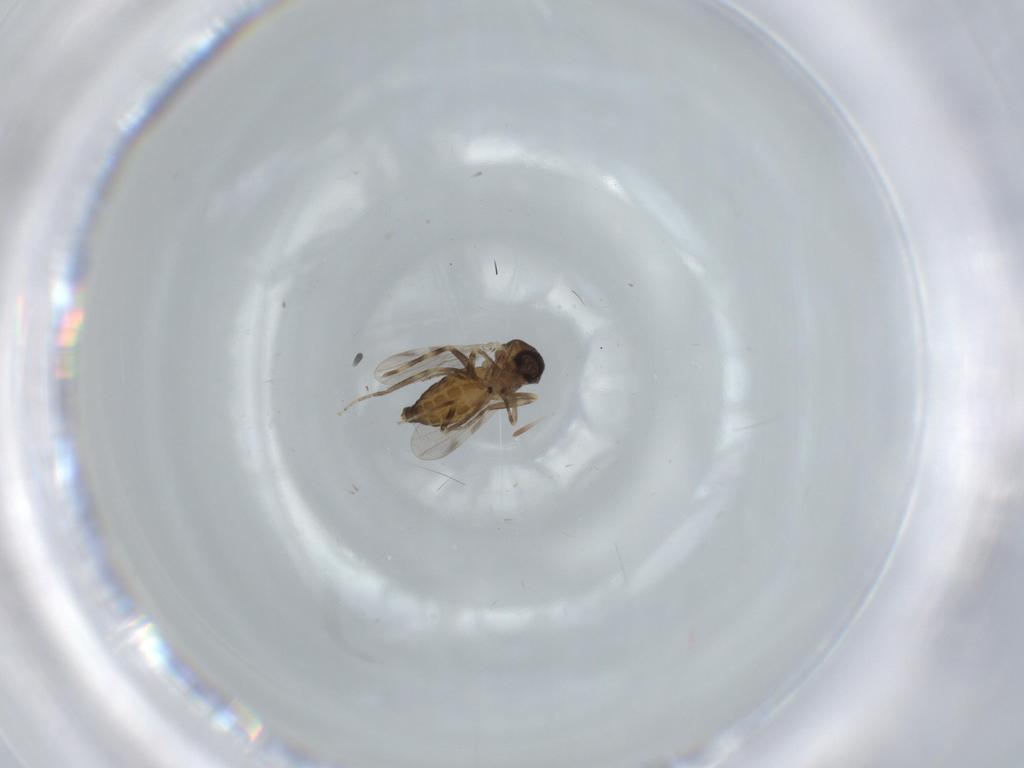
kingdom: Animalia
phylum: Arthropoda
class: Insecta
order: Diptera
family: Ceratopogonidae
